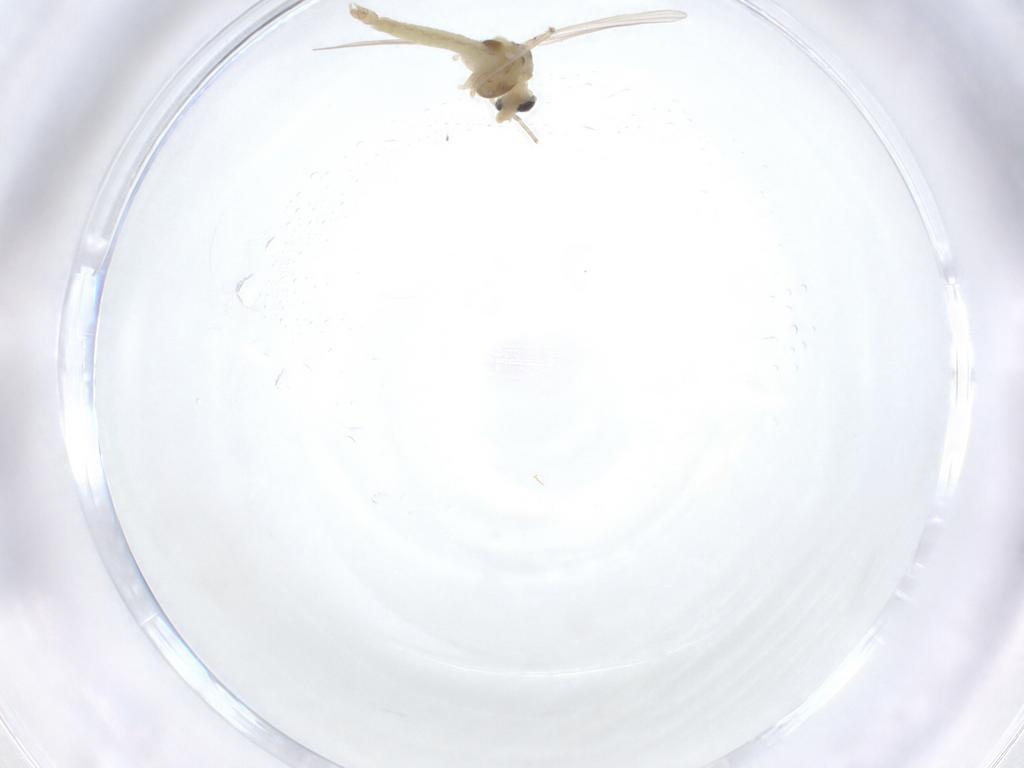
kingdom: Animalia
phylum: Arthropoda
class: Insecta
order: Diptera
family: Chironomidae
